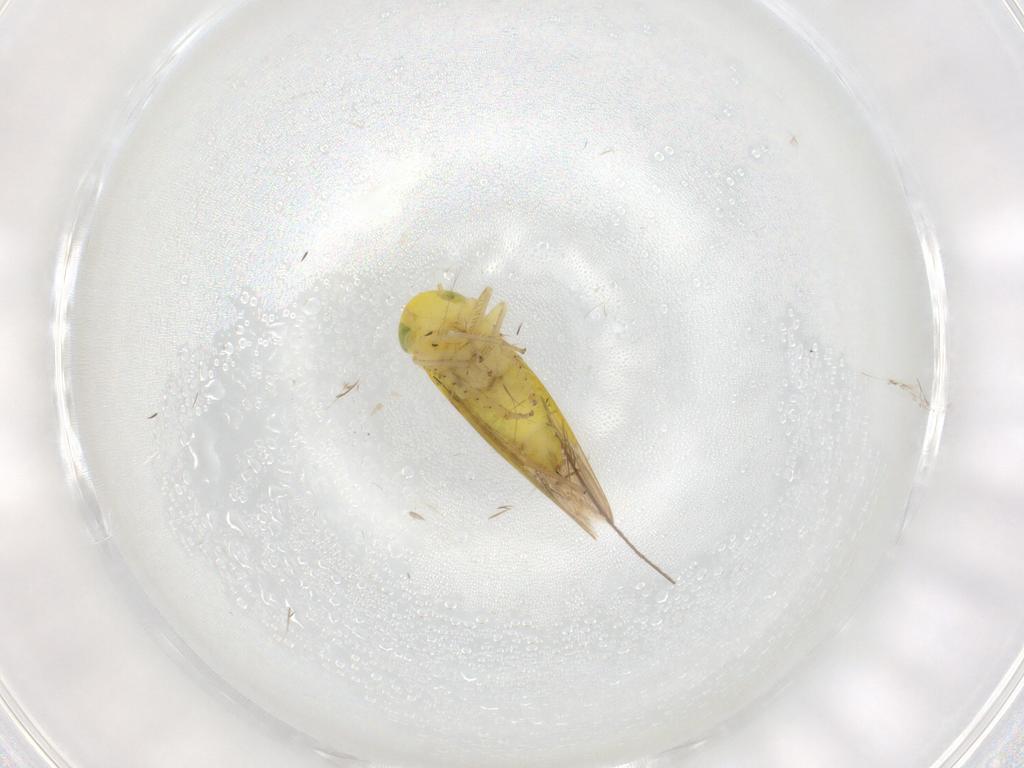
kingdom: Animalia
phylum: Arthropoda
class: Insecta
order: Hemiptera
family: Cicadellidae
